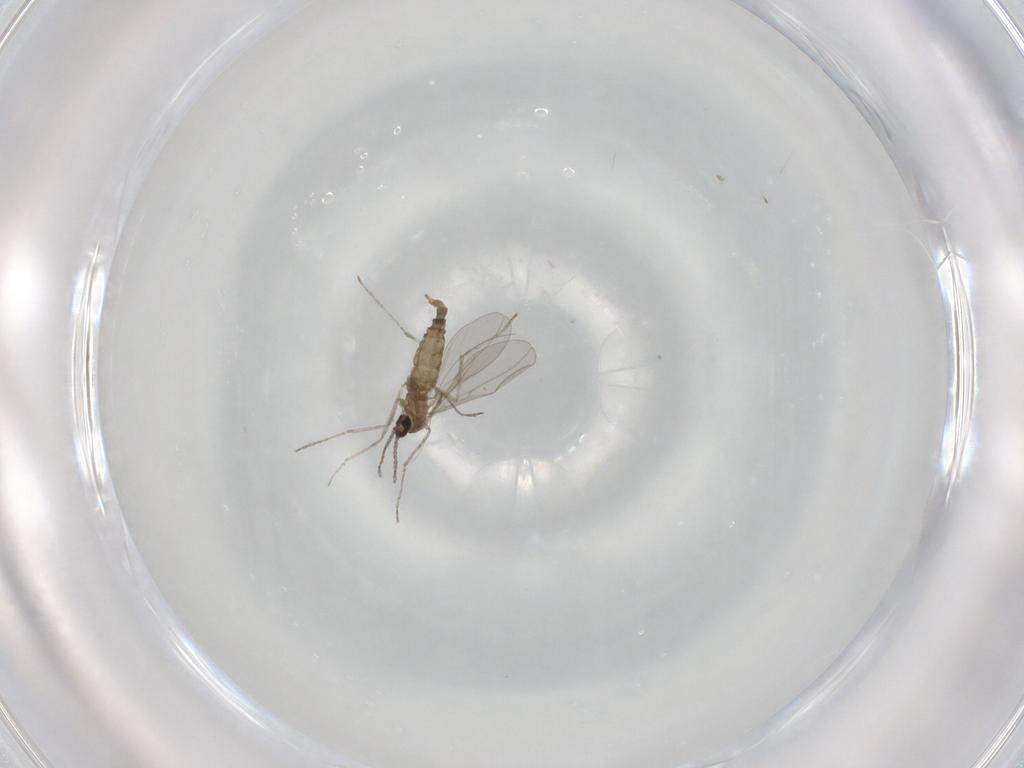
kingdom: Animalia
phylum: Arthropoda
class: Insecta
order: Diptera
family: Cecidomyiidae
